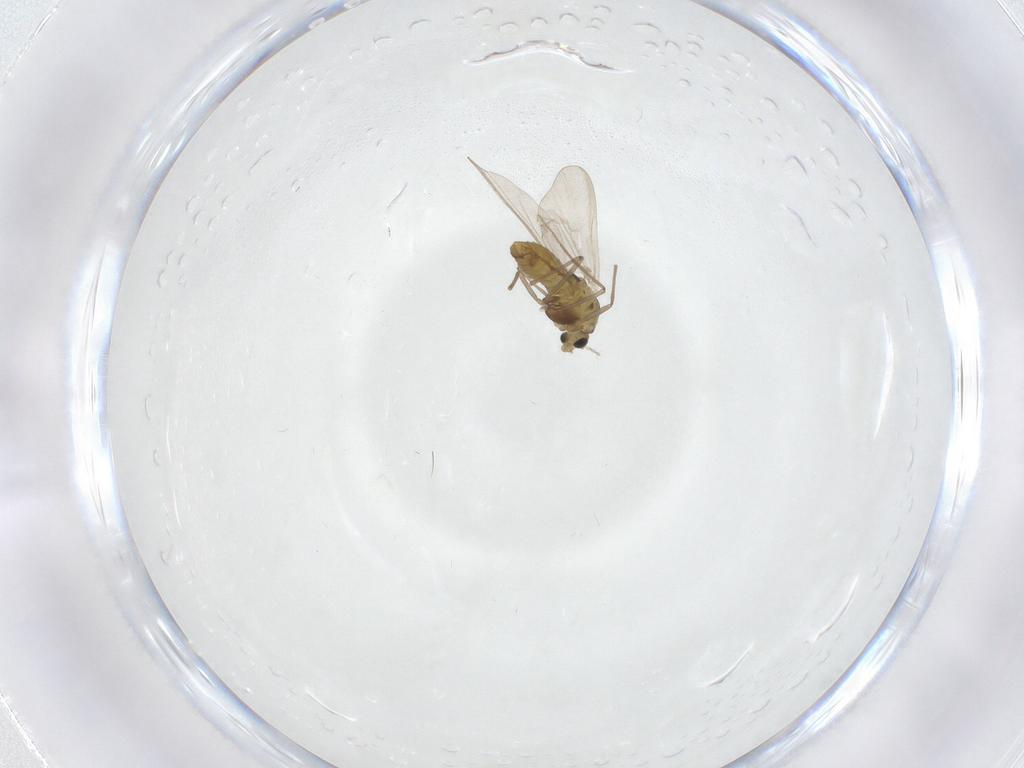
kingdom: Animalia
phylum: Arthropoda
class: Insecta
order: Diptera
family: Chironomidae
